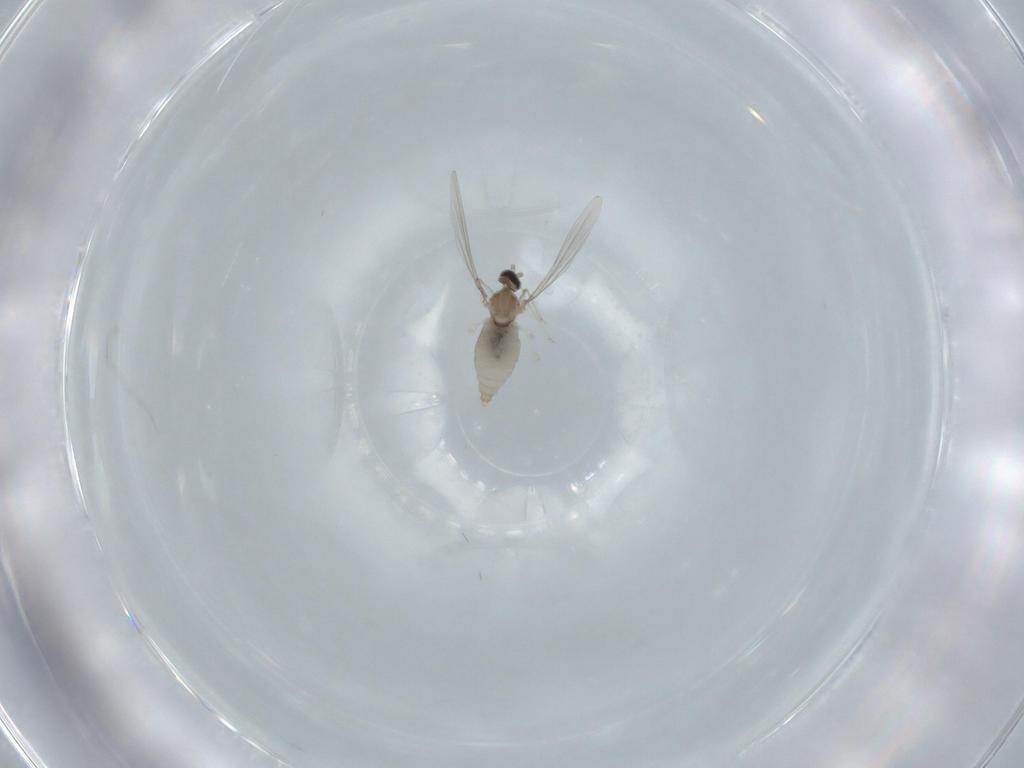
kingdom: Animalia
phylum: Arthropoda
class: Insecta
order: Diptera
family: Cecidomyiidae
